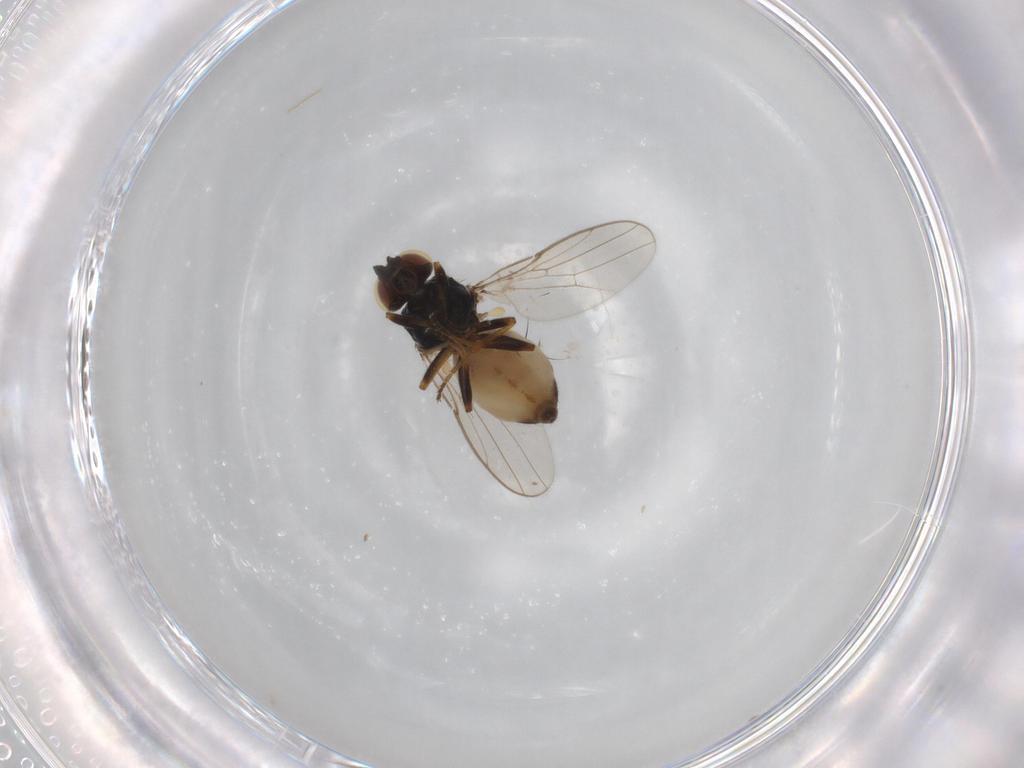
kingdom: Animalia
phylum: Arthropoda
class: Insecta
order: Diptera
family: Chloropidae
